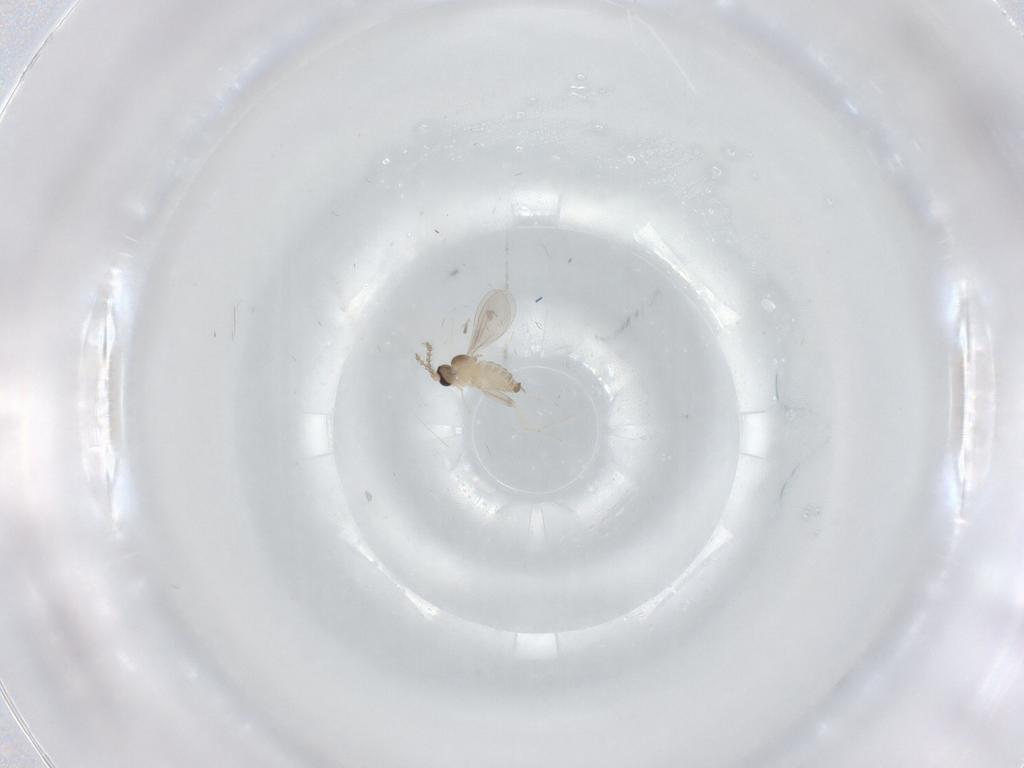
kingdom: Animalia
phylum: Arthropoda
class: Insecta
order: Diptera
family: Cecidomyiidae
